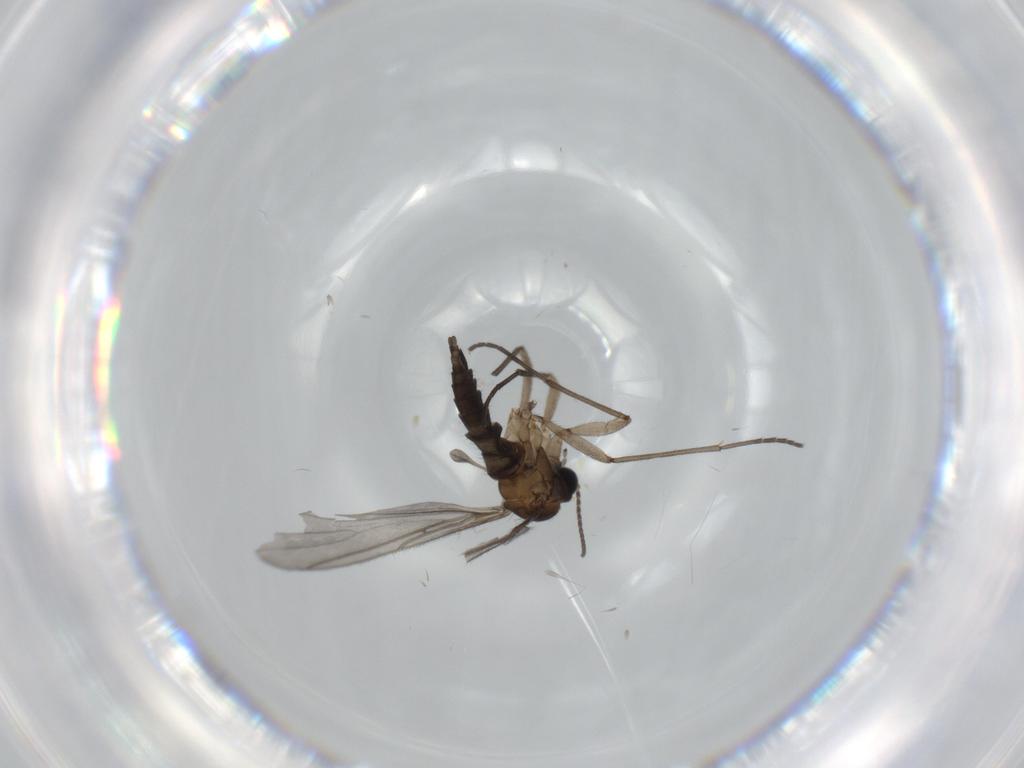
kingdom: Animalia
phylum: Arthropoda
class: Insecta
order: Diptera
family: Sciaridae
